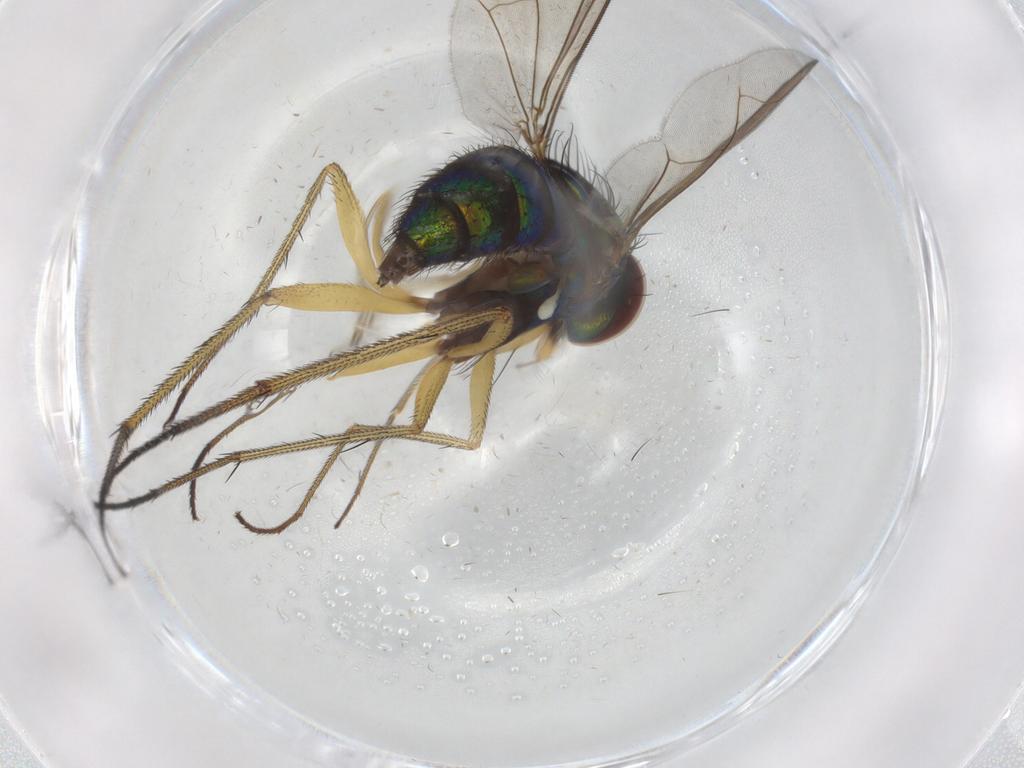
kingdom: Animalia
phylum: Arthropoda
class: Insecta
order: Diptera
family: Dolichopodidae
